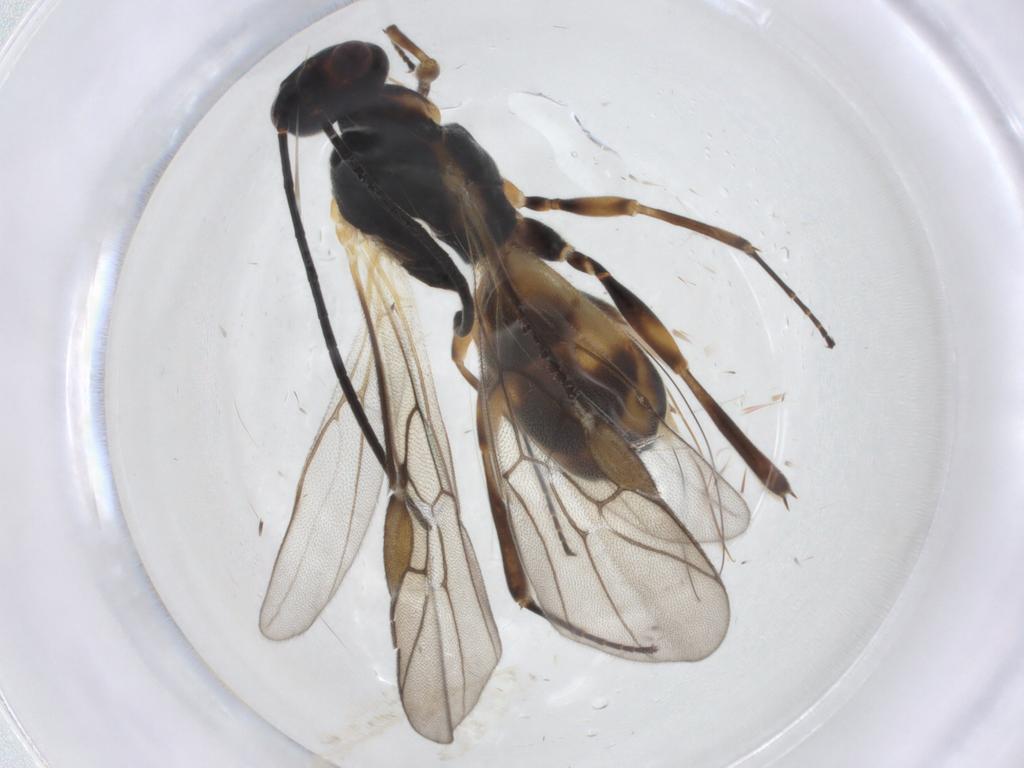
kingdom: Animalia
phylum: Arthropoda
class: Insecta
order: Hymenoptera
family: Braconidae
